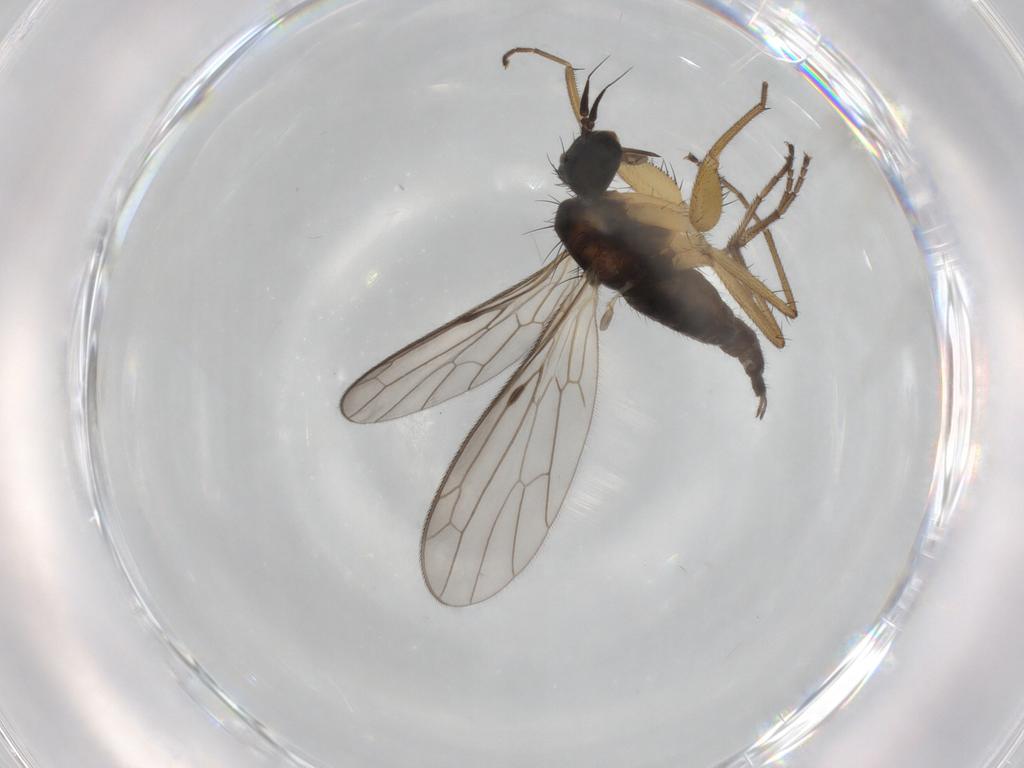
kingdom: Animalia
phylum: Arthropoda
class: Insecta
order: Diptera
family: Chironomidae
